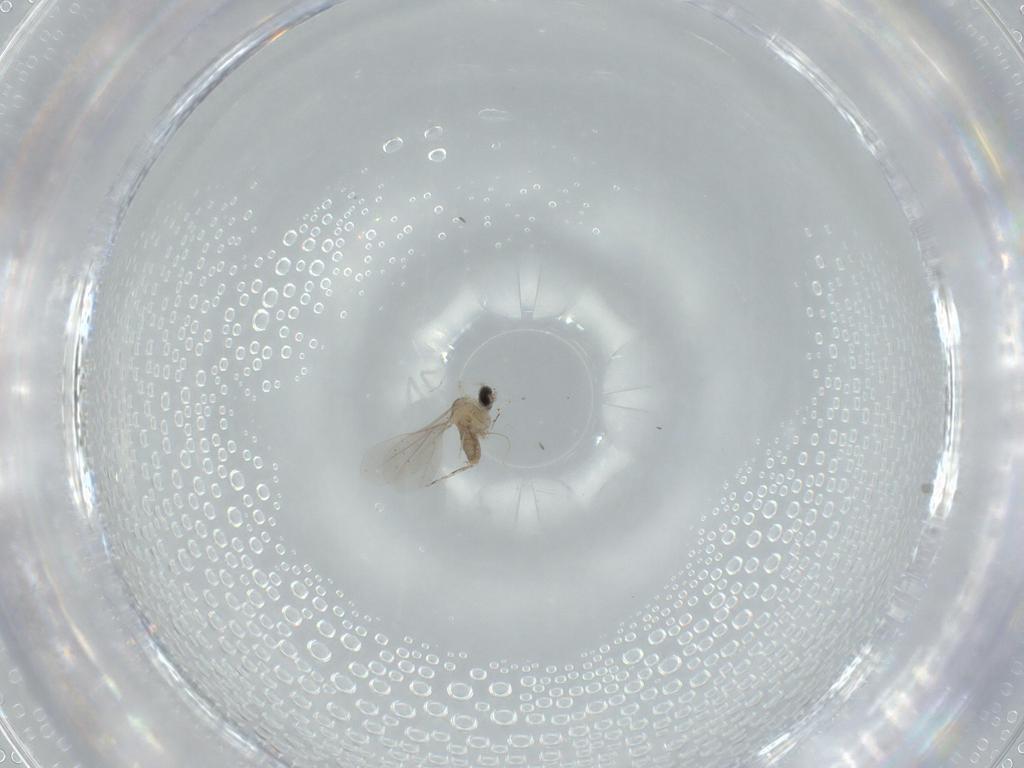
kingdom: Animalia
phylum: Arthropoda
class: Insecta
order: Diptera
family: Cecidomyiidae
